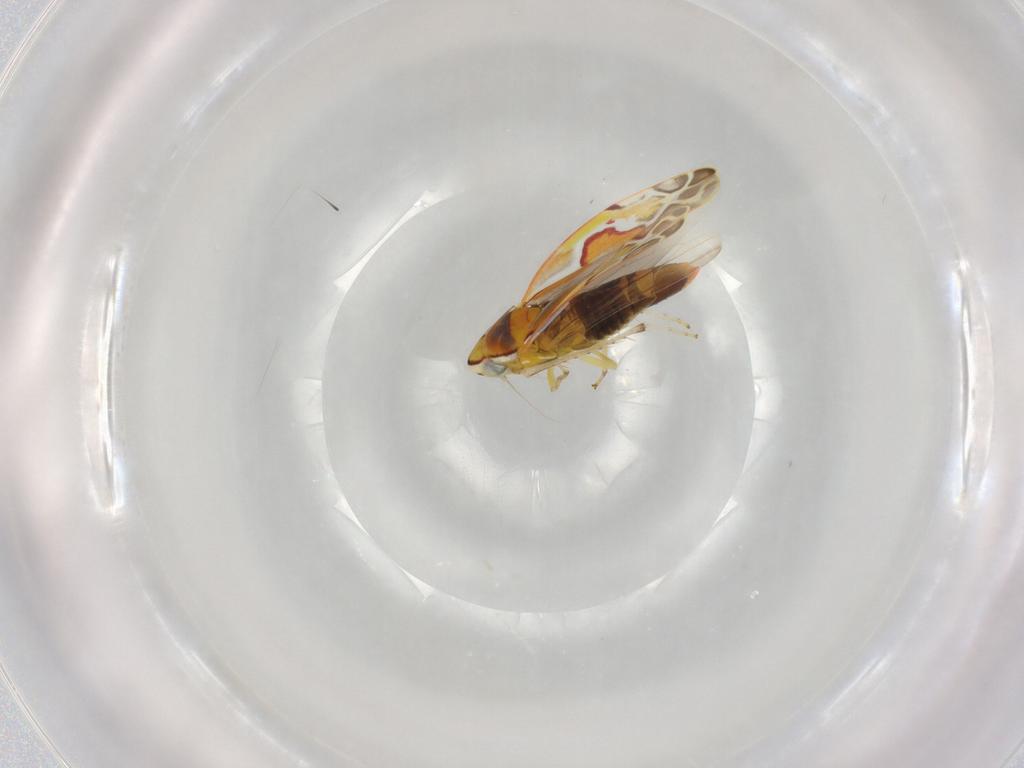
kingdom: Animalia
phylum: Arthropoda
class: Insecta
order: Hemiptera
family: Cicadellidae
